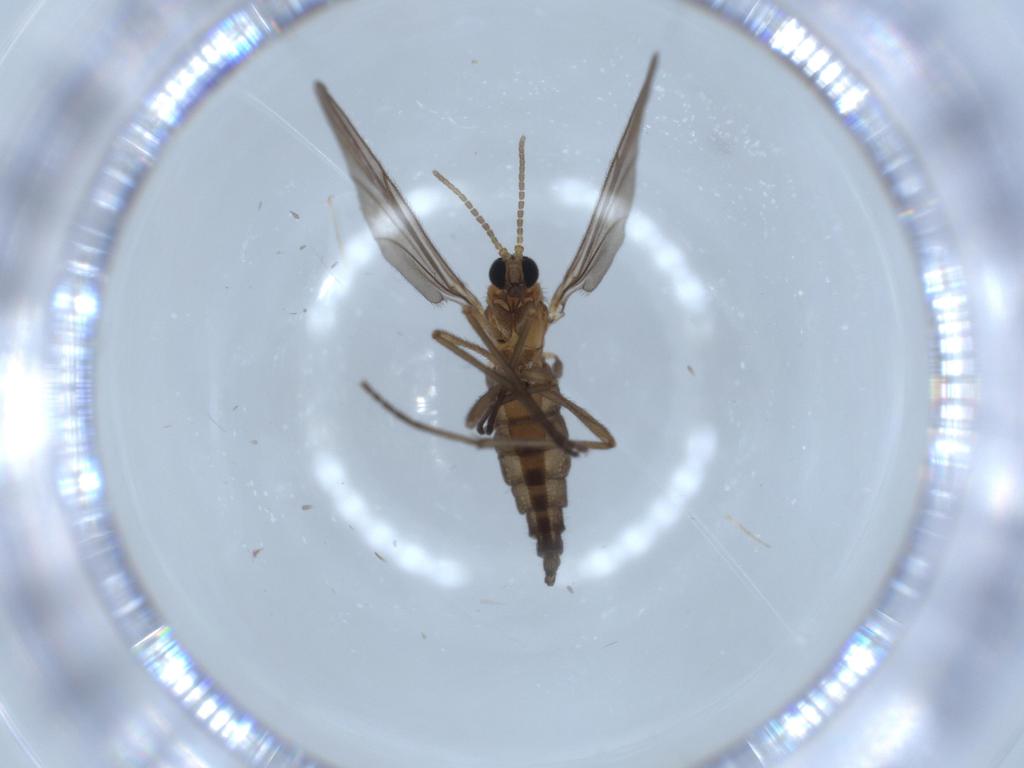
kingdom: Animalia
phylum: Arthropoda
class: Insecta
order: Diptera
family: Sciaridae
